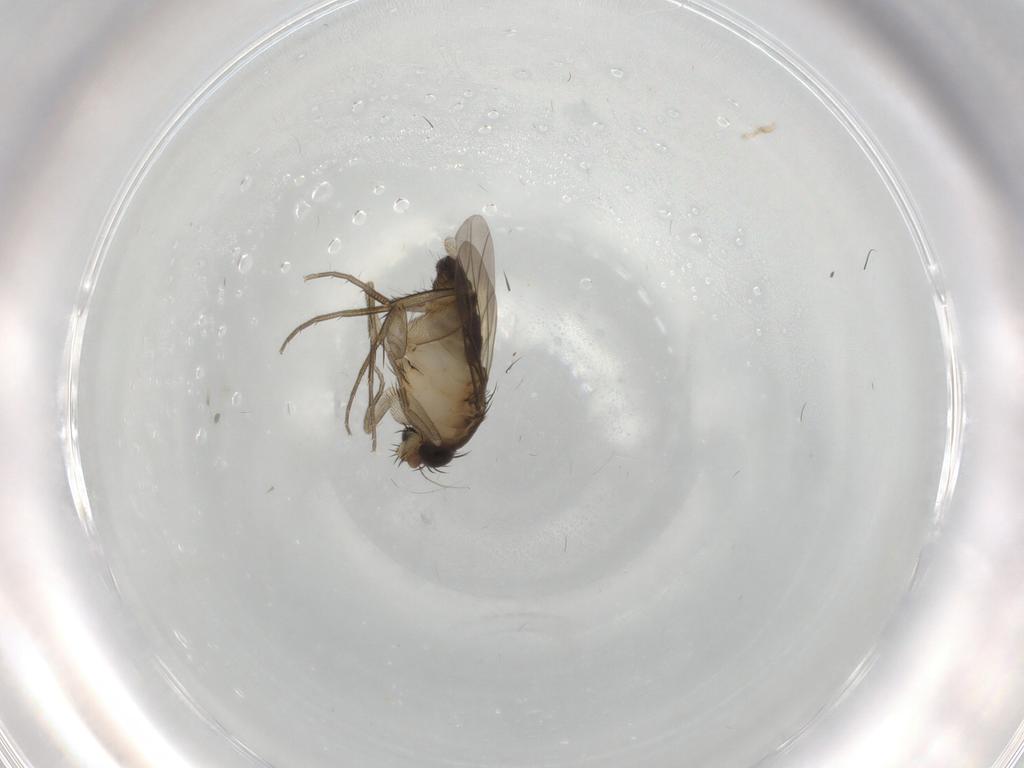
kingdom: Animalia
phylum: Arthropoda
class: Insecta
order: Diptera
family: Phoridae
